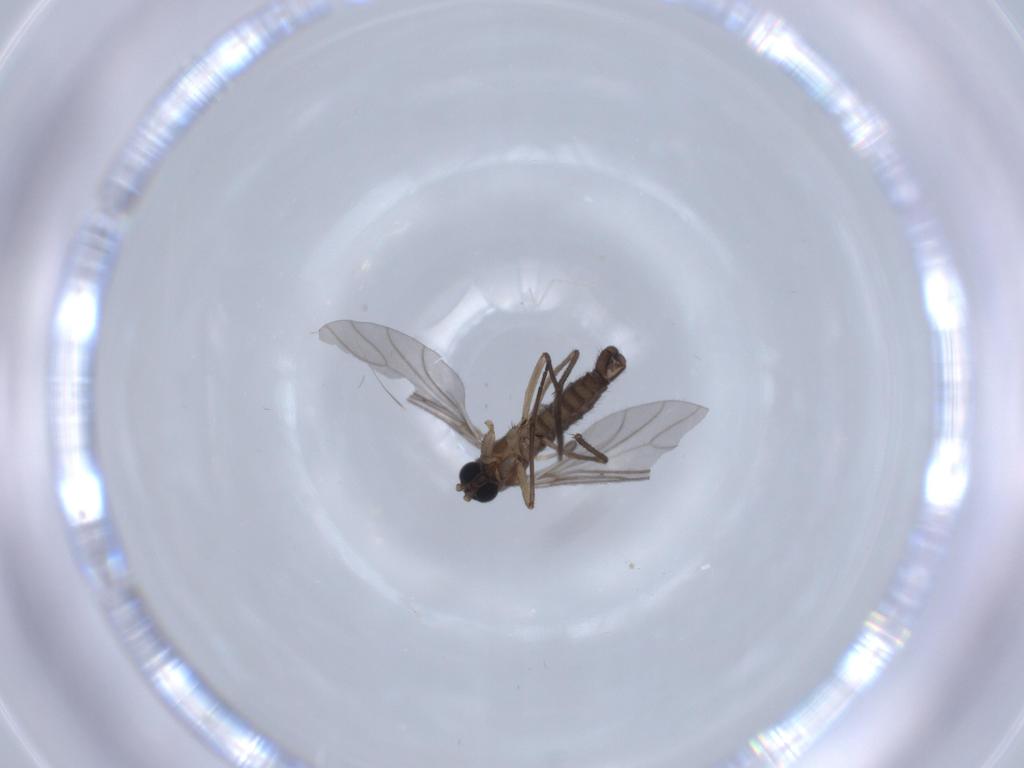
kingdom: Animalia
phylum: Arthropoda
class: Insecta
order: Diptera
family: Sciaridae
